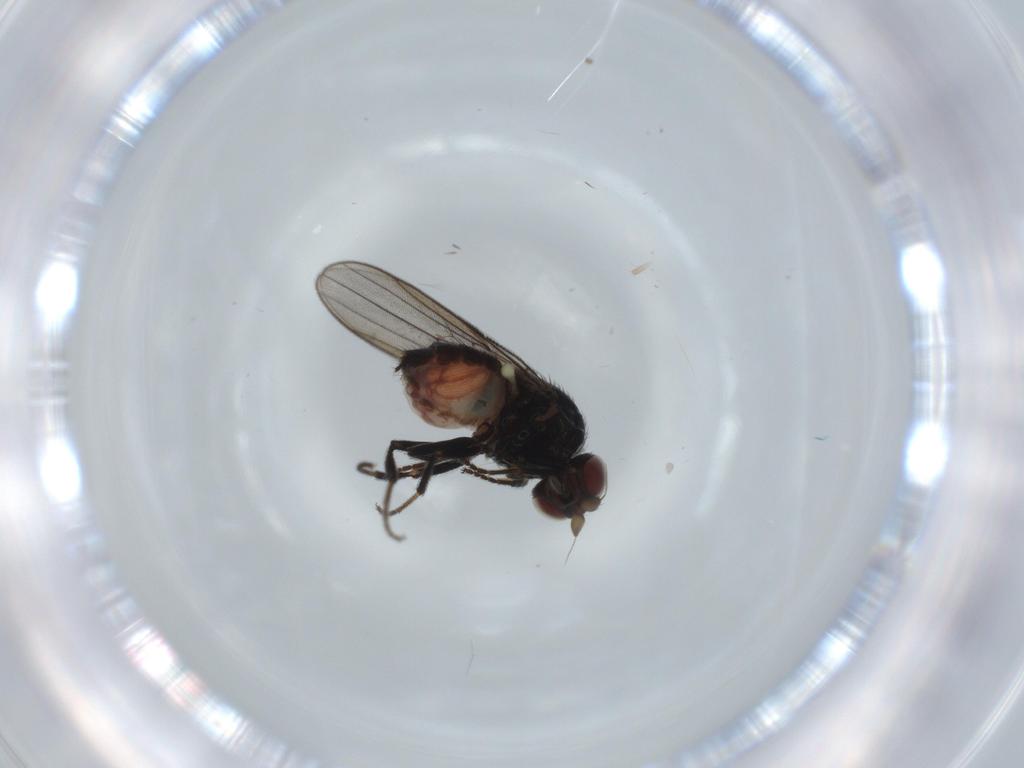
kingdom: Animalia
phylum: Arthropoda
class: Insecta
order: Diptera
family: Chloropidae
